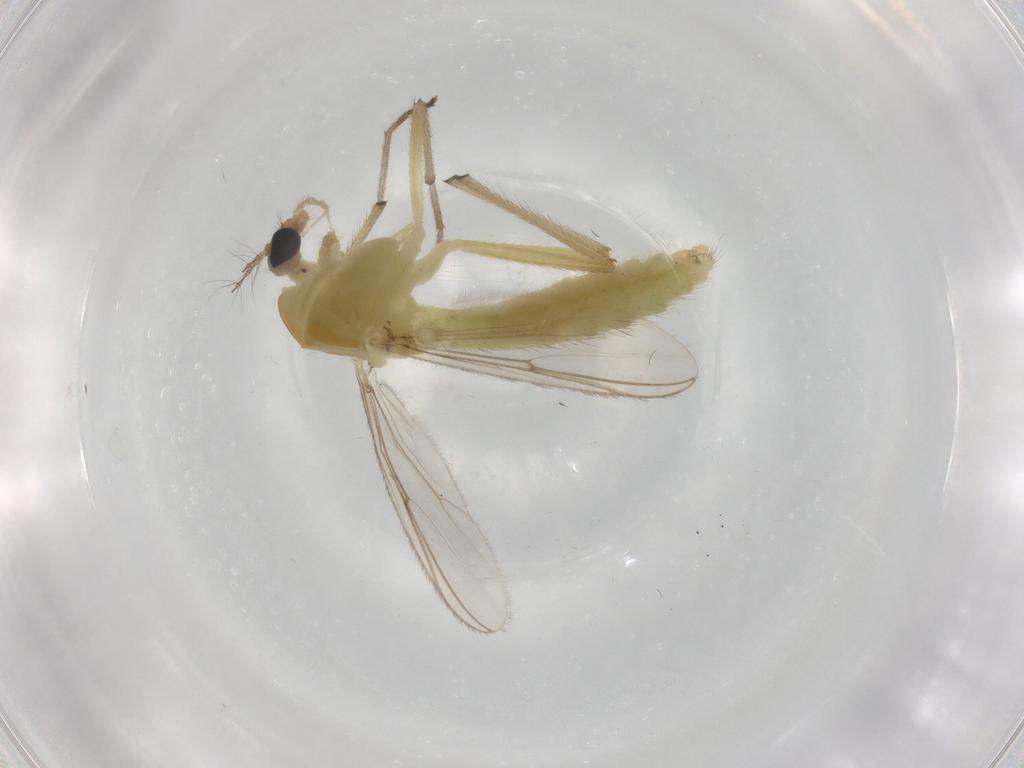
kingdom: Animalia
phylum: Arthropoda
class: Insecta
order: Diptera
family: Chironomidae
